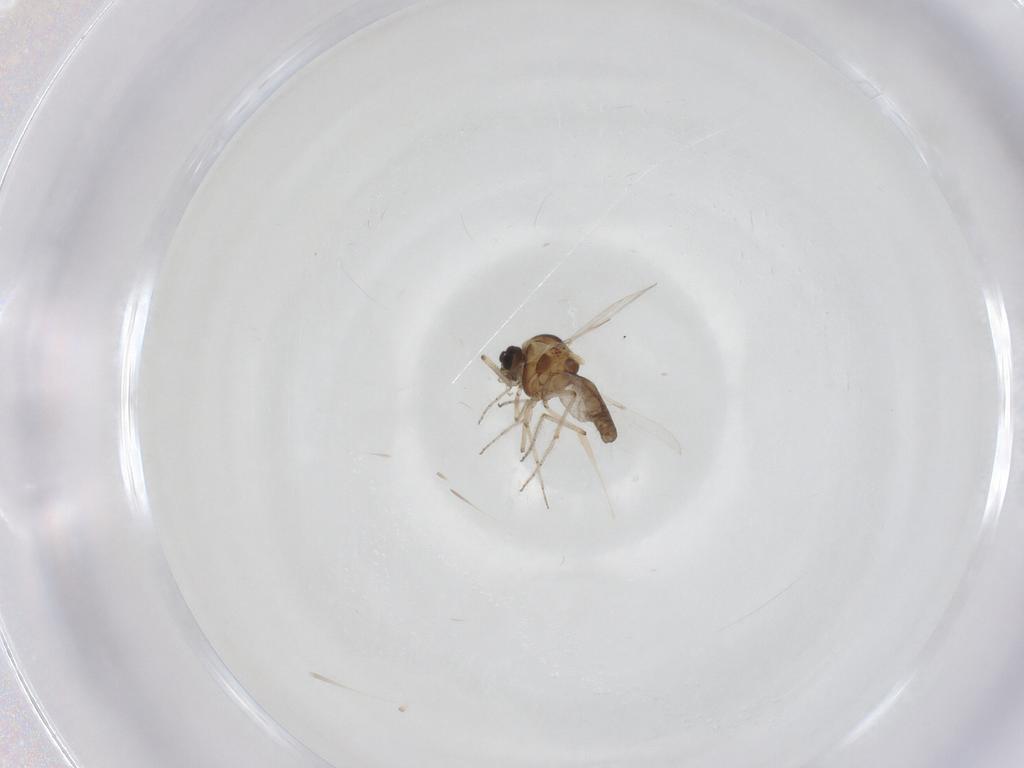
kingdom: Animalia
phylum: Arthropoda
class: Insecta
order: Diptera
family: Ceratopogonidae
